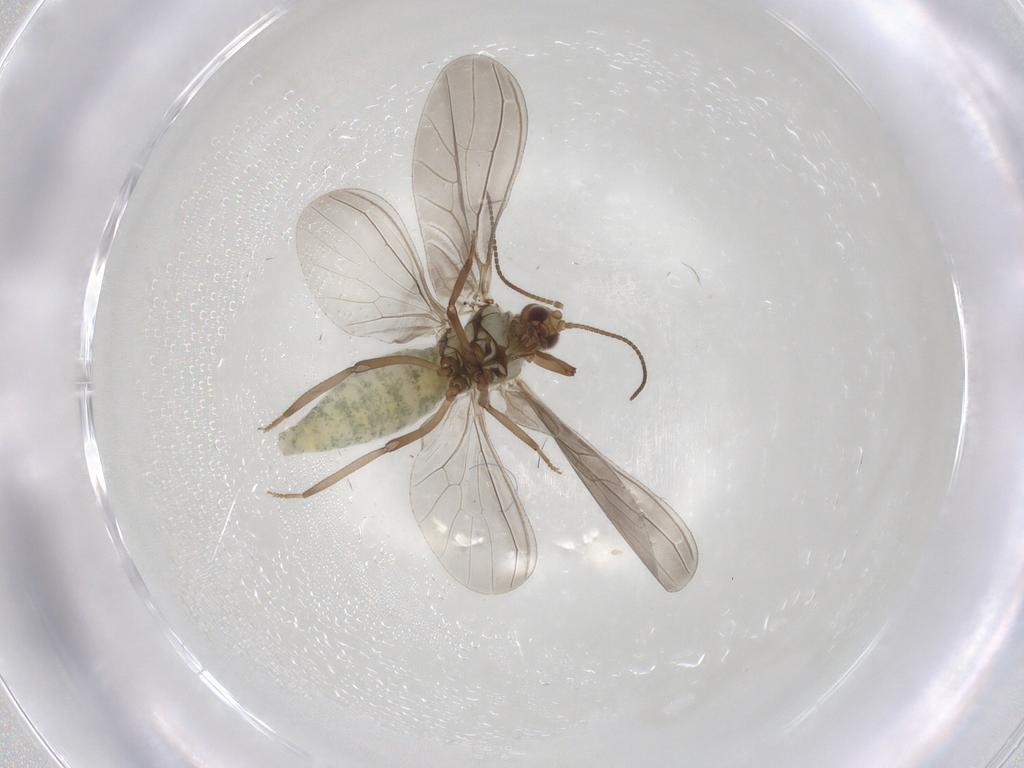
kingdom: Animalia
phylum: Arthropoda
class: Insecta
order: Neuroptera
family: Coniopterygidae
